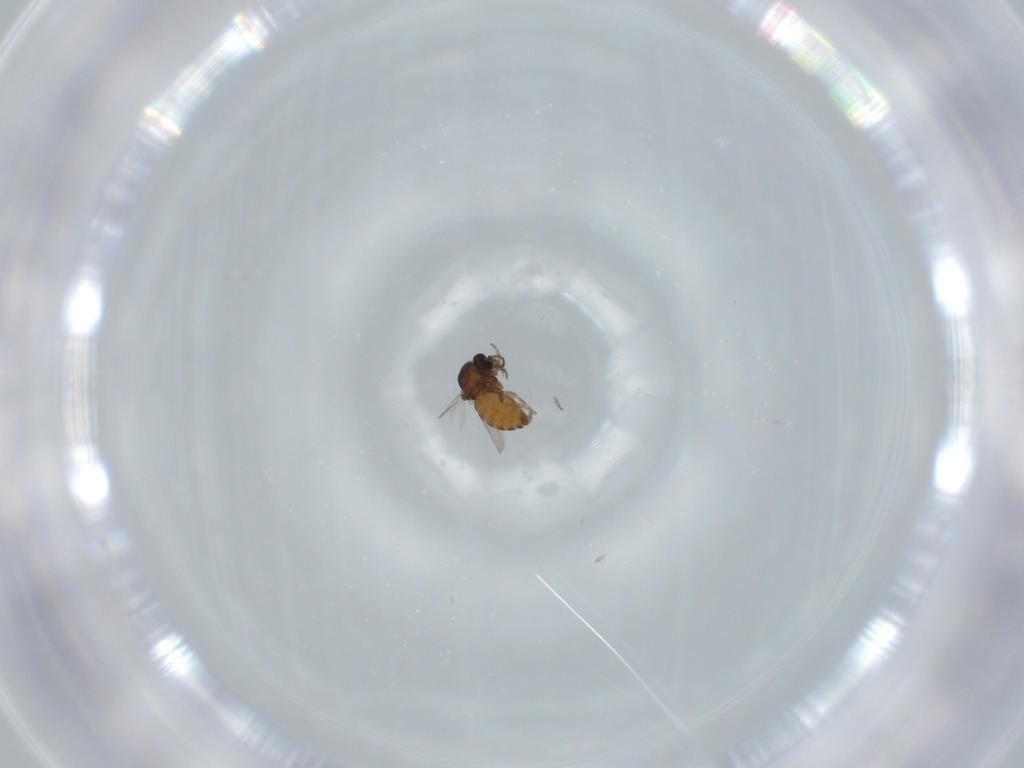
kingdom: Animalia
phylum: Arthropoda
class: Insecta
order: Diptera
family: Ceratopogonidae
